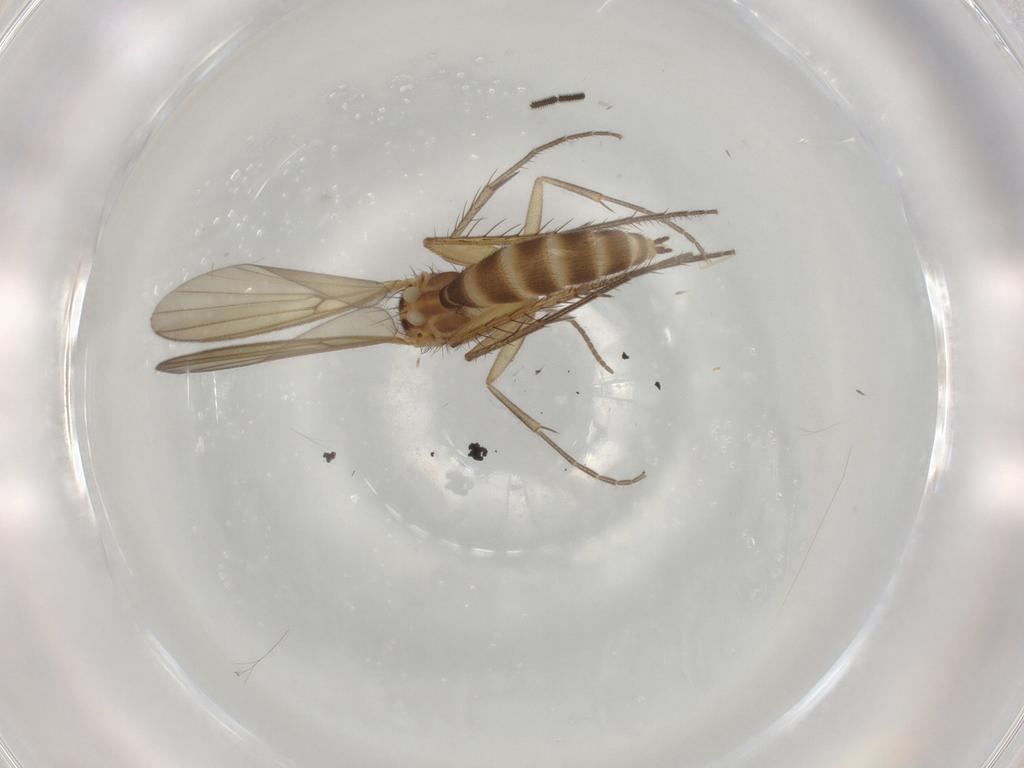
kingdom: Animalia
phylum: Arthropoda
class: Insecta
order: Diptera
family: Mycetophilidae
